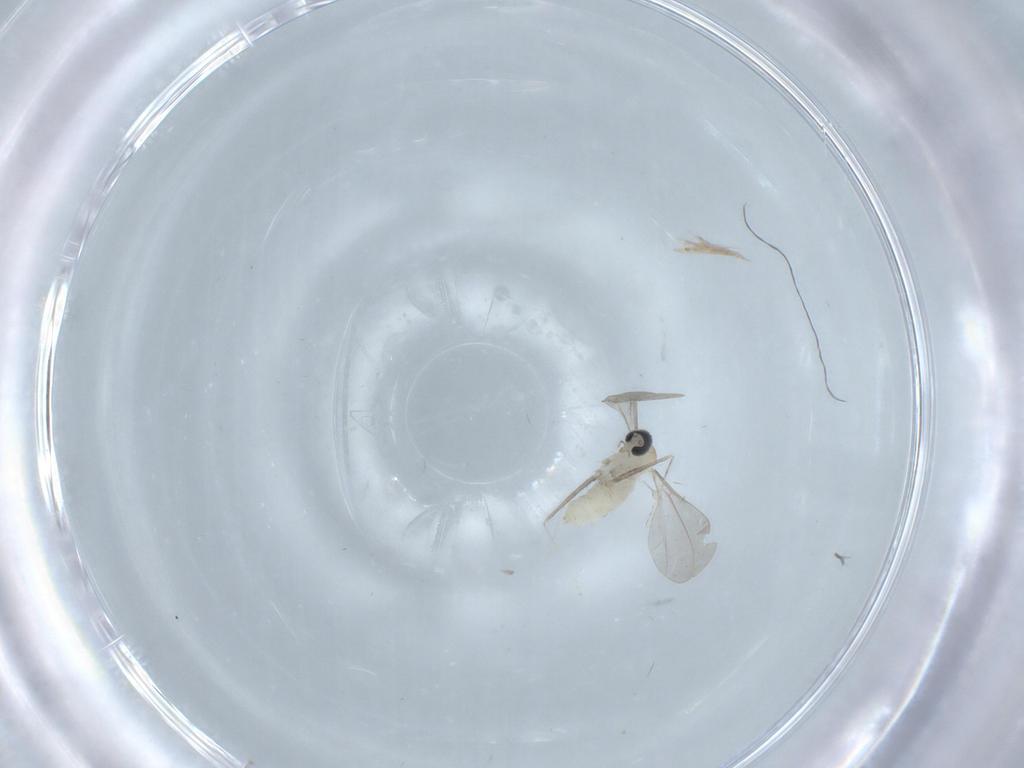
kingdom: Animalia
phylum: Arthropoda
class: Insecta
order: Diptera
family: Cecidomyiidae
